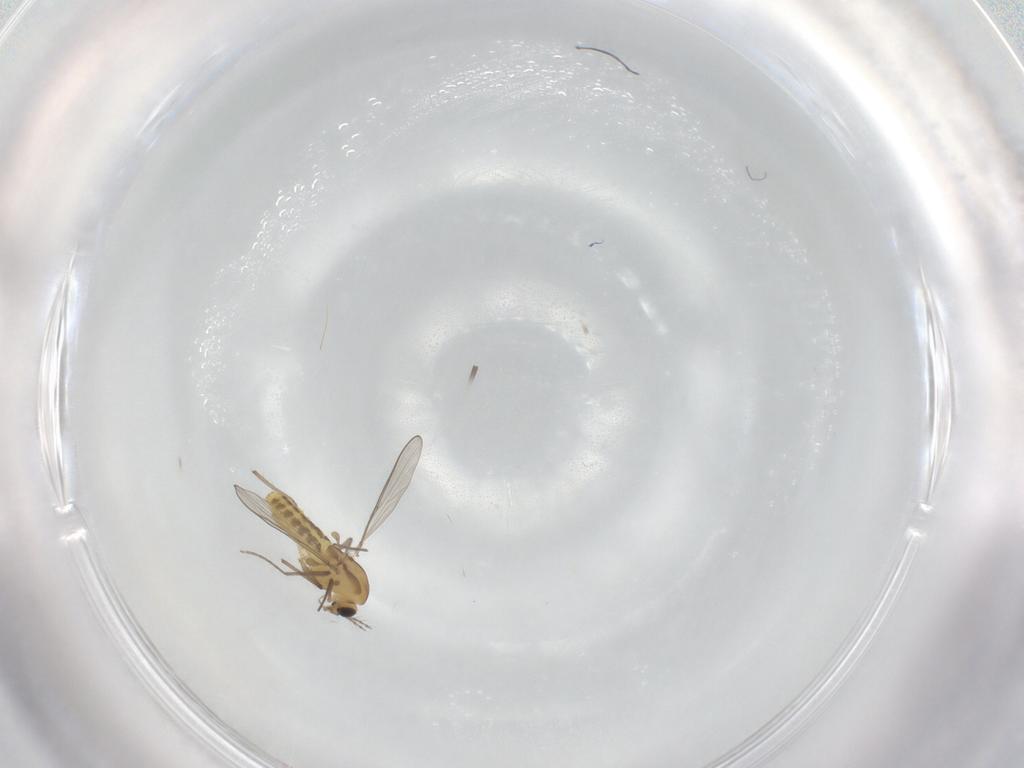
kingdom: Animalia
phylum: Arthropoda
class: Insecta
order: Diptera
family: Chironomidae
